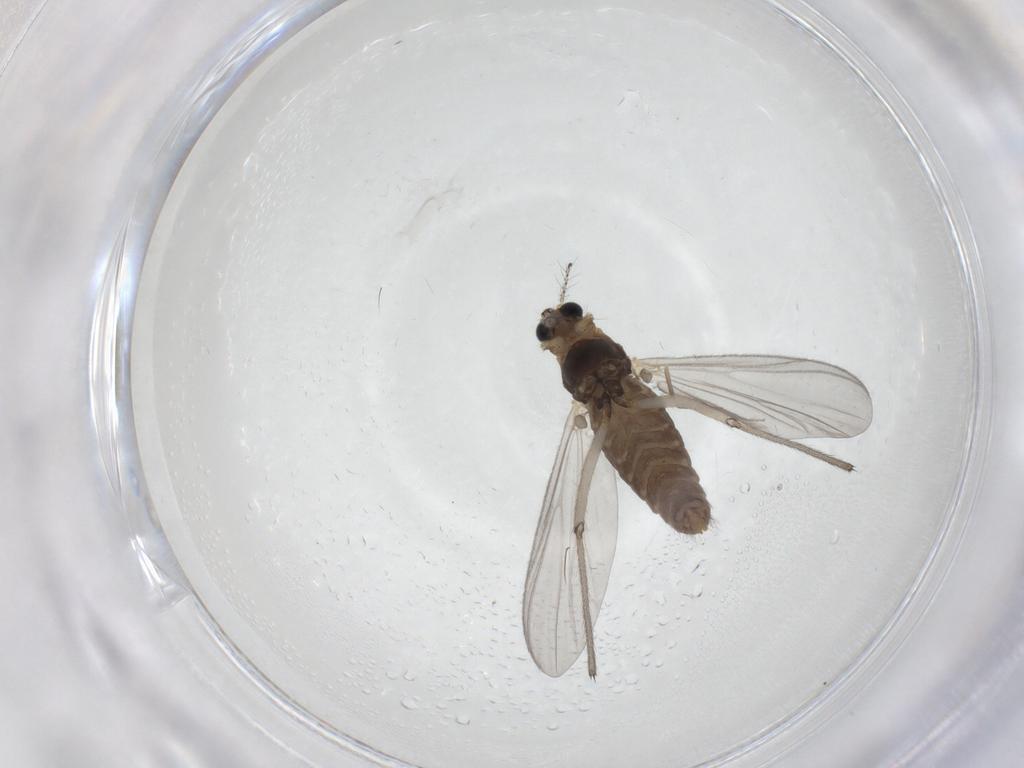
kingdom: Animalia
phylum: Arthropoda
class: Insecta
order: Diptera
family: Chironomidae
